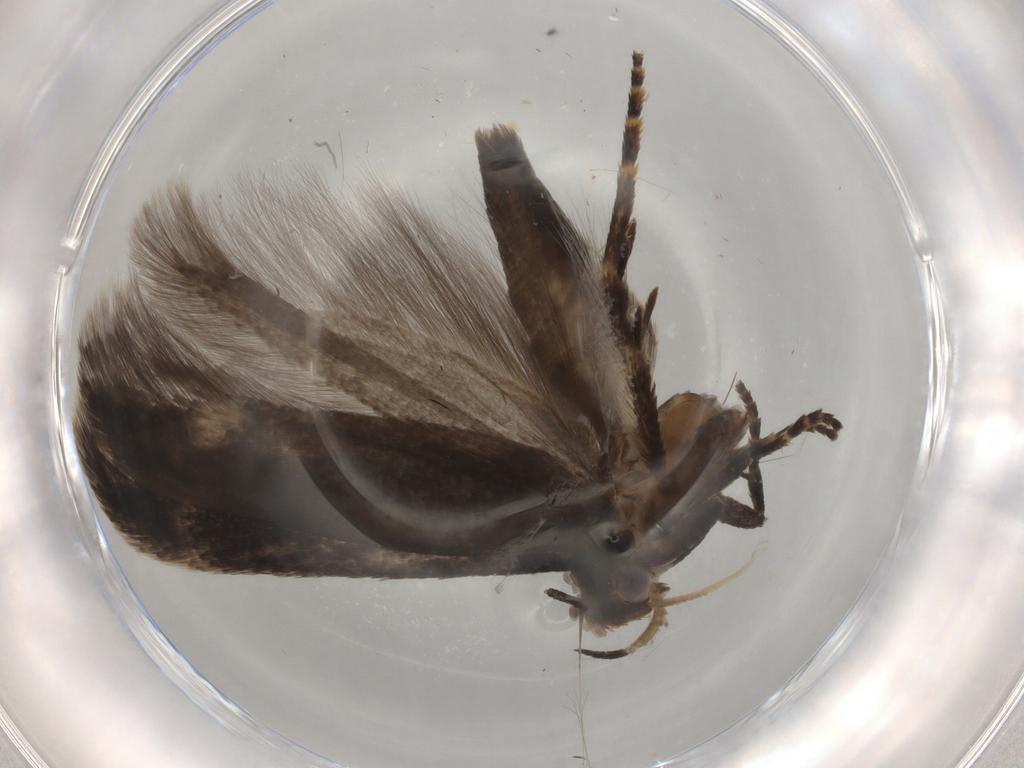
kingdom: Animalia
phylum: Arthropoda
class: Insecta
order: Lepidoptera
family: Gelechiidae
